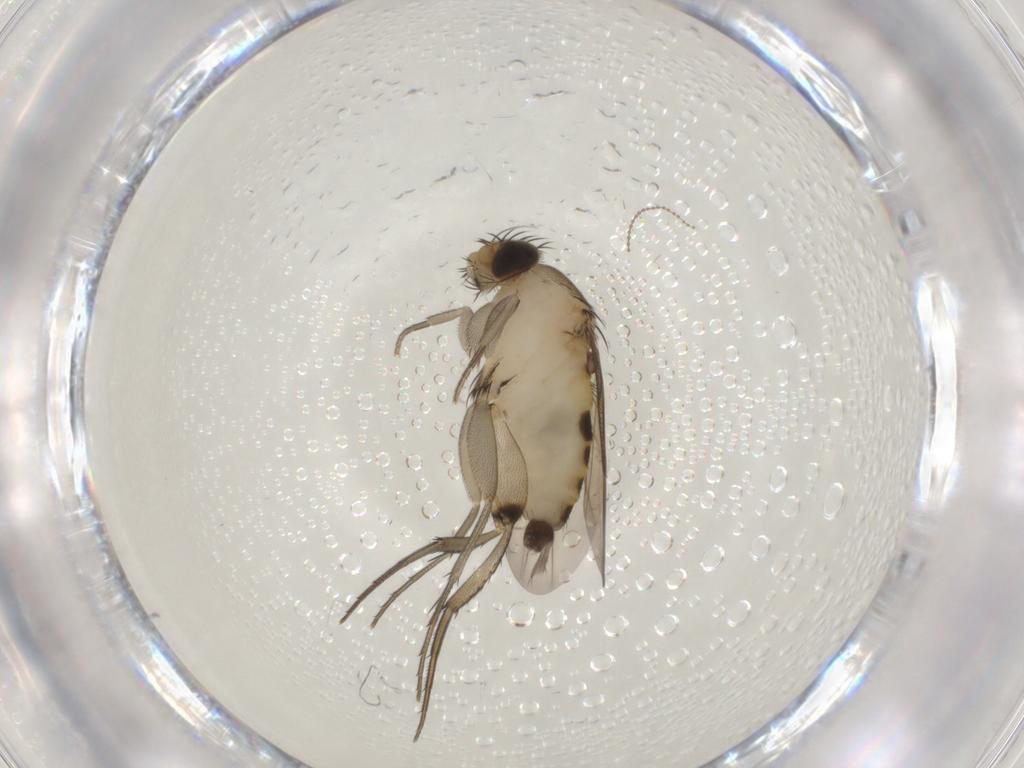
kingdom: Animalia
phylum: Arthropoda
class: Insecta
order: Diptera
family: Phoridae
